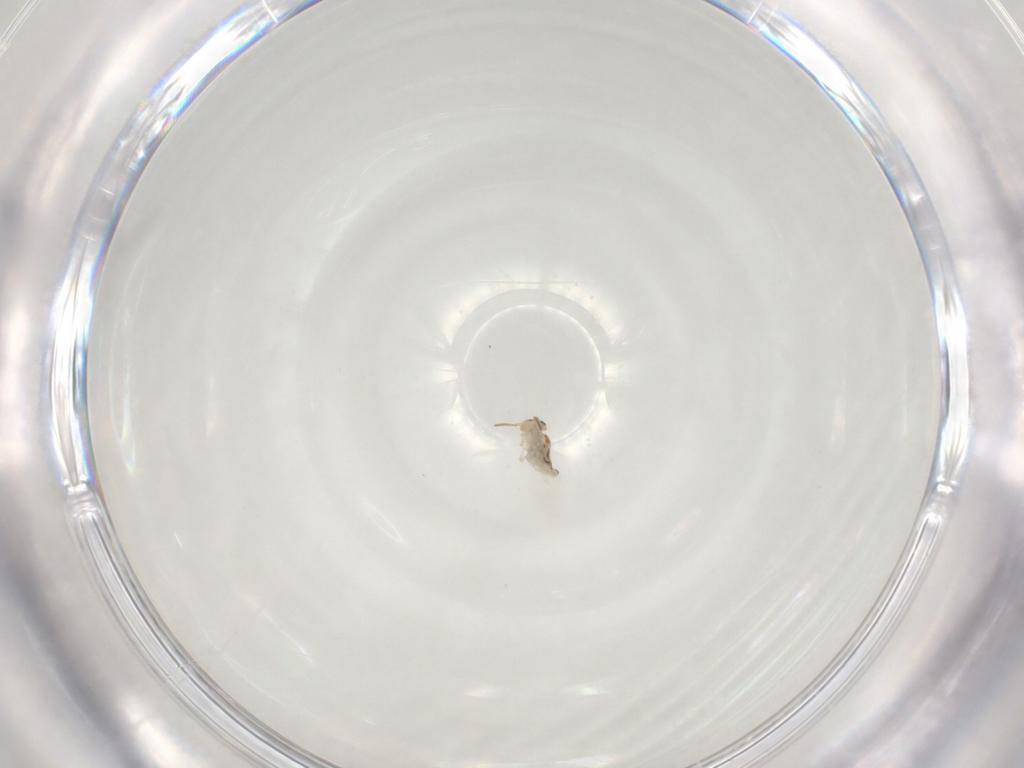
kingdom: Animalia
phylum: Arthropoda
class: Collembola
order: Symphypleona
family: Bourletiellidae
